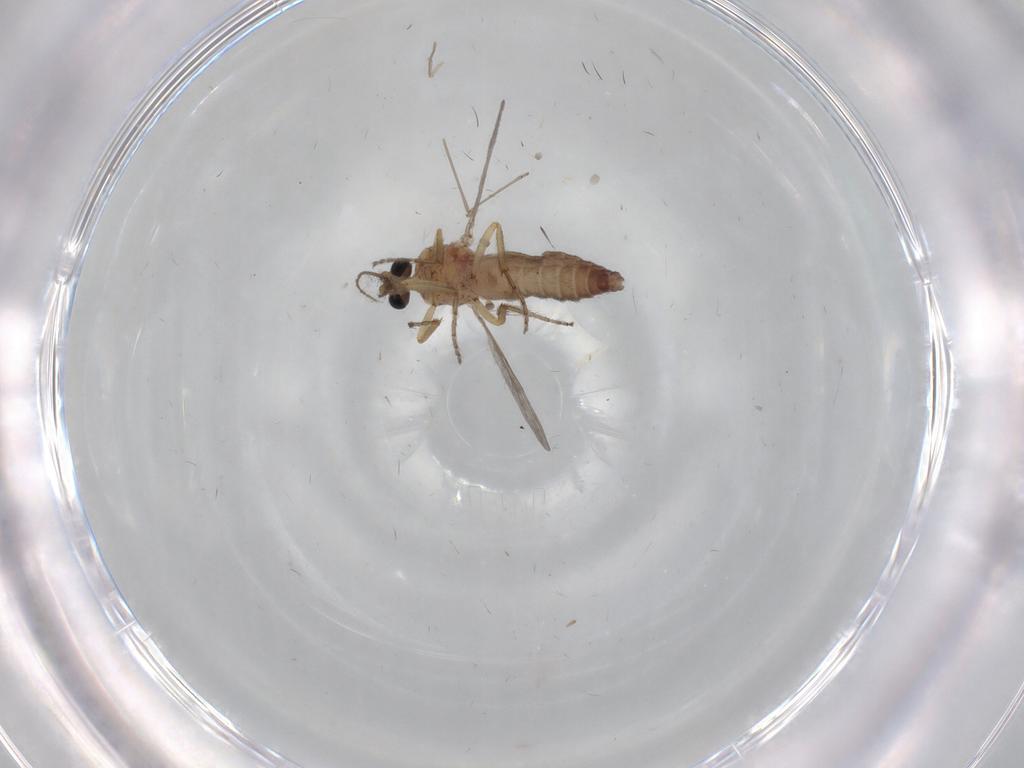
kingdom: Animalia
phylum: Arthropoda
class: Insecta
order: Diptera
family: Ceratopogonidae
